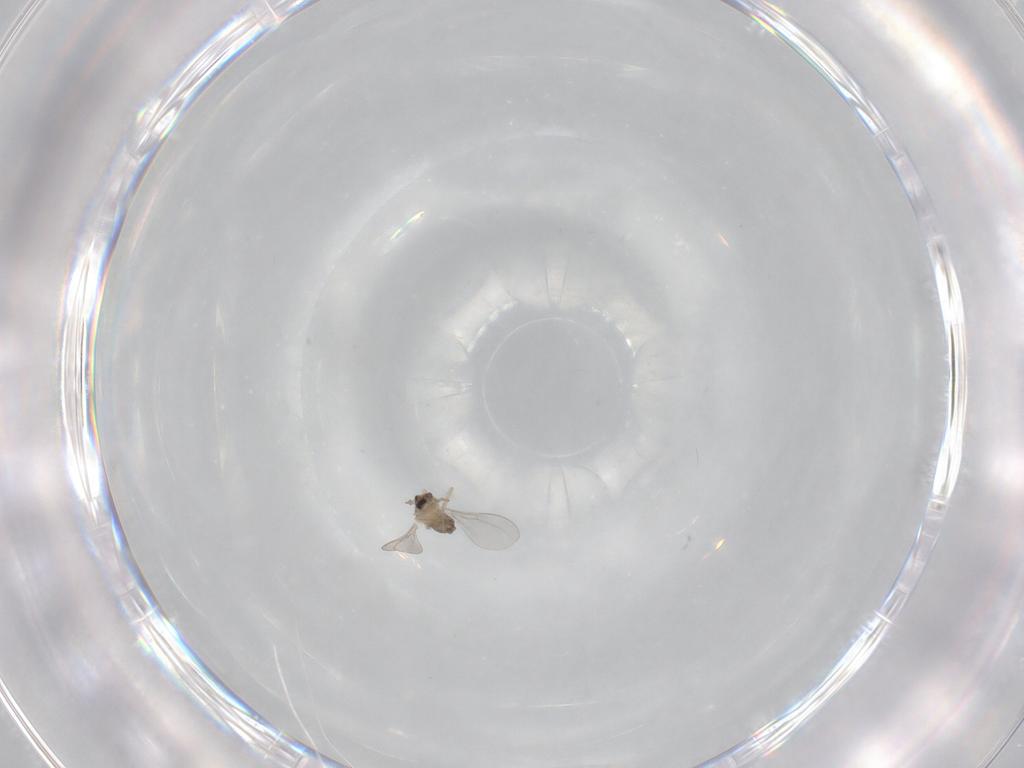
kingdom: Animalia
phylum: Arthropoda
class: Insecta
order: Diptera
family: Cecidomyiidae
